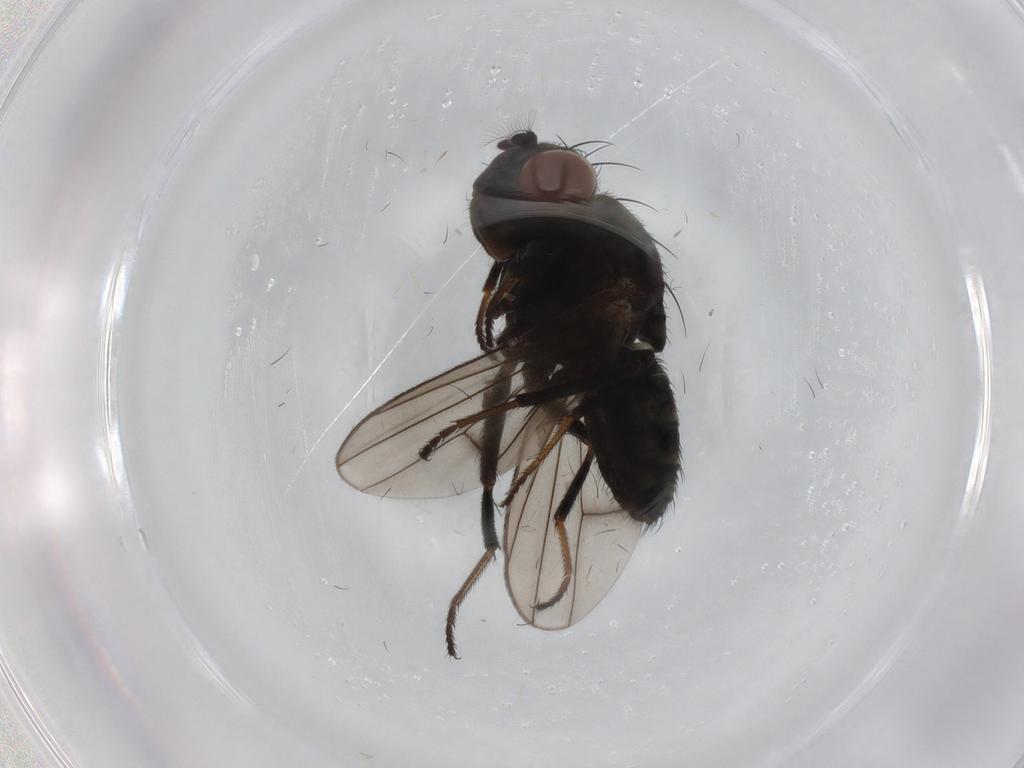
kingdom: Animalia
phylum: Arthropoda
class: Insecta
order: Diptera
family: Ephydridae
